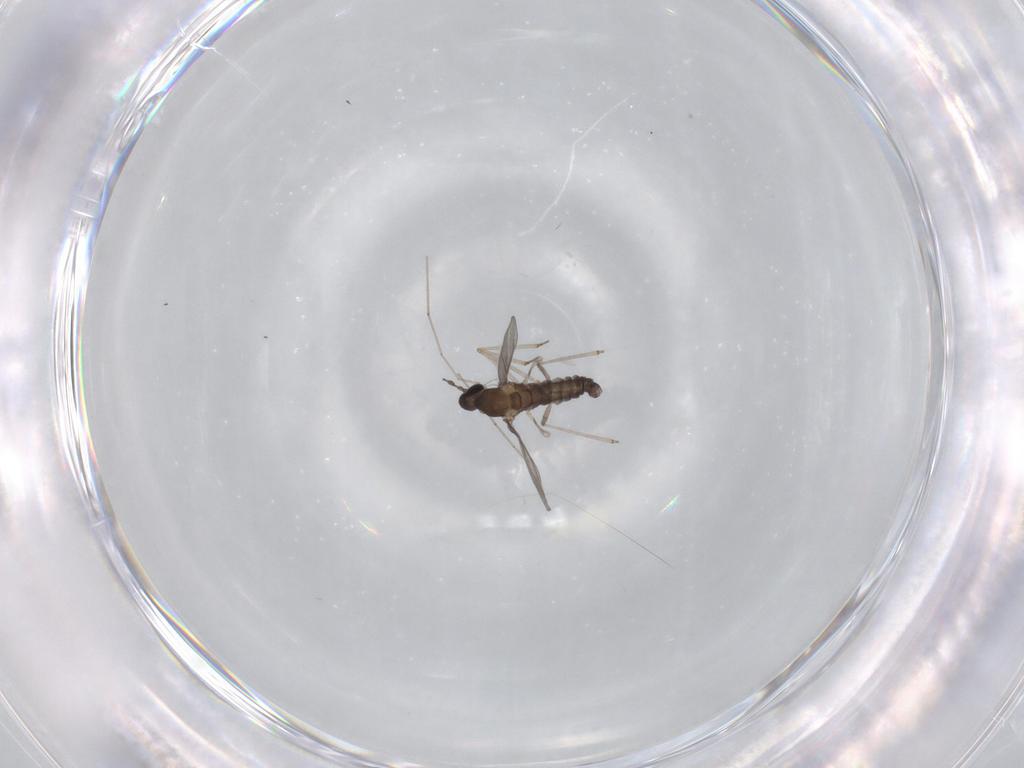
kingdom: Animalia
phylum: Arthropoda
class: Insecta
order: Diptera
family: Cecidomyiidae
